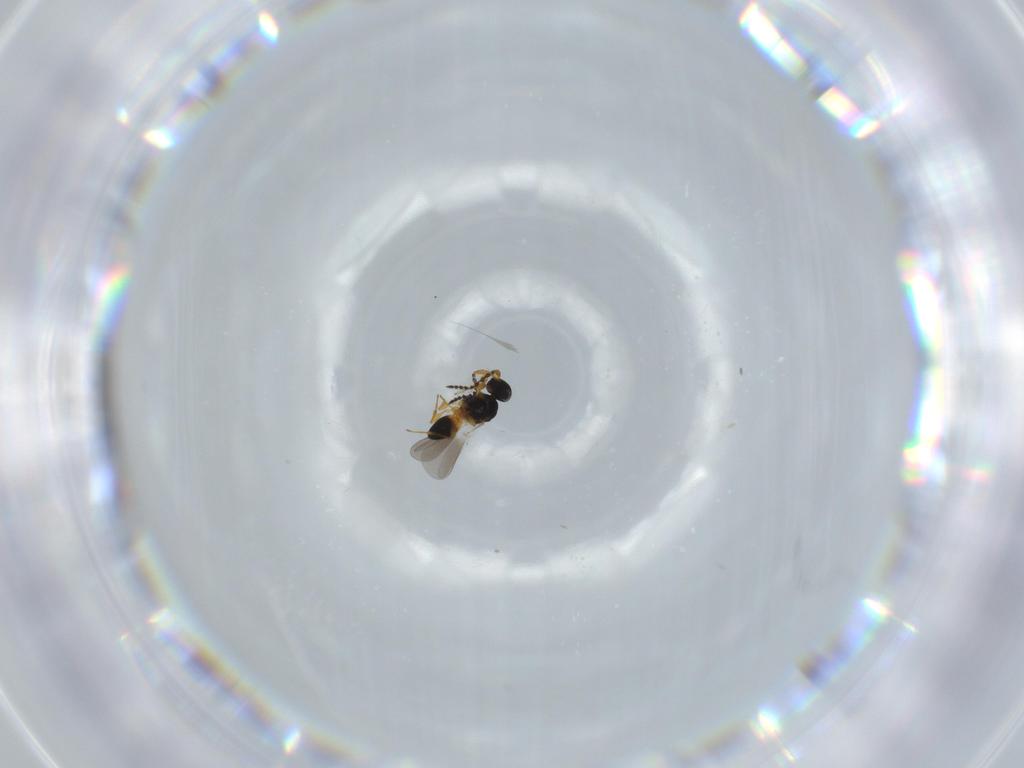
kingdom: Animalia
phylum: Arthropoda
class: Insecta
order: Hymenoptera
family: Platygastridae
